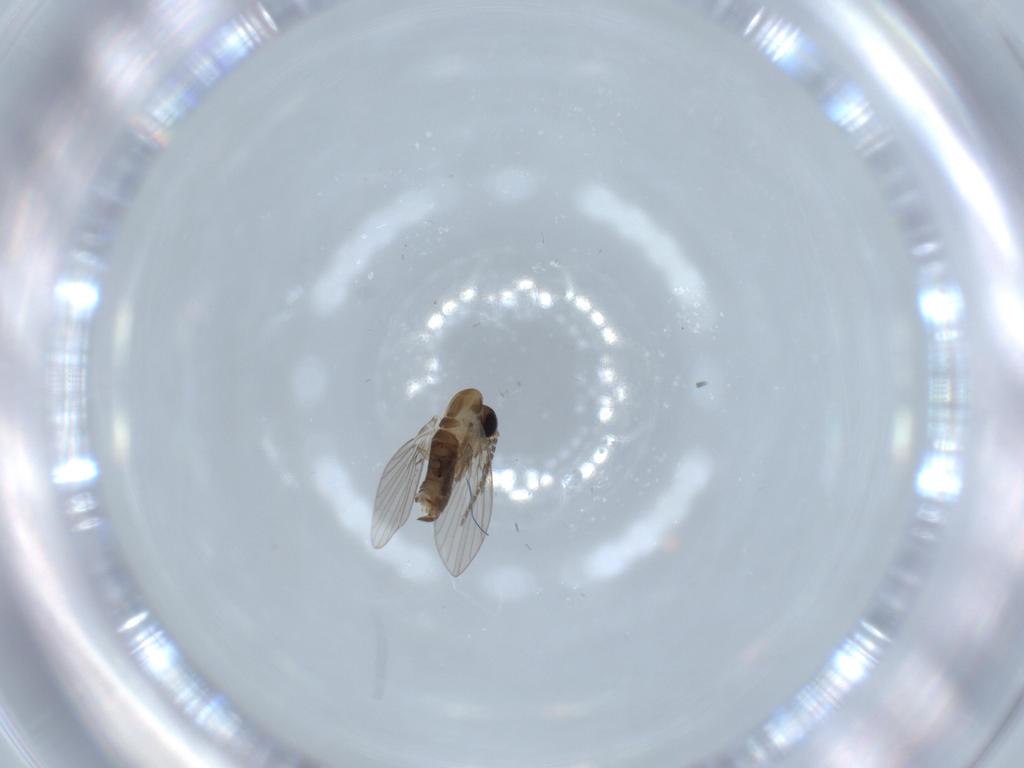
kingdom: Animalia
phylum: Arthropoda
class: Insecta
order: Diptera
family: Psychodidae
